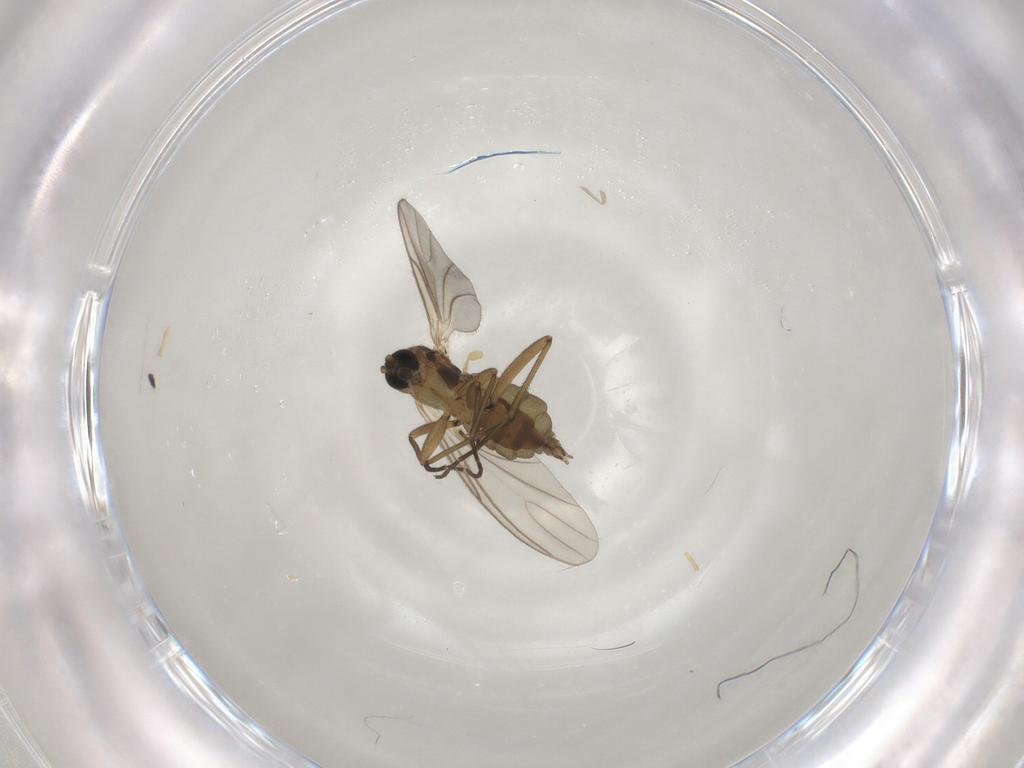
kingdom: Animalia
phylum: Arthropoda
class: Insecta
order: Diptera
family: Cecidomyiidae
